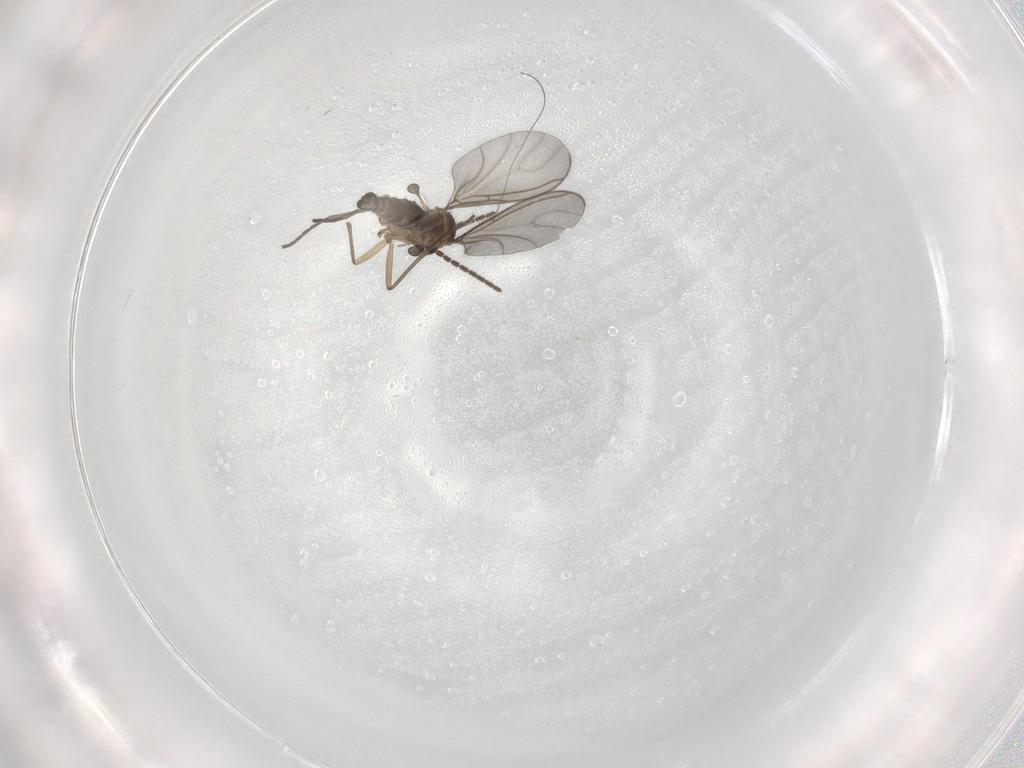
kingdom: Animalia
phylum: Arthropoda
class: Insecta
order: Diptera
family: Sciaridae
